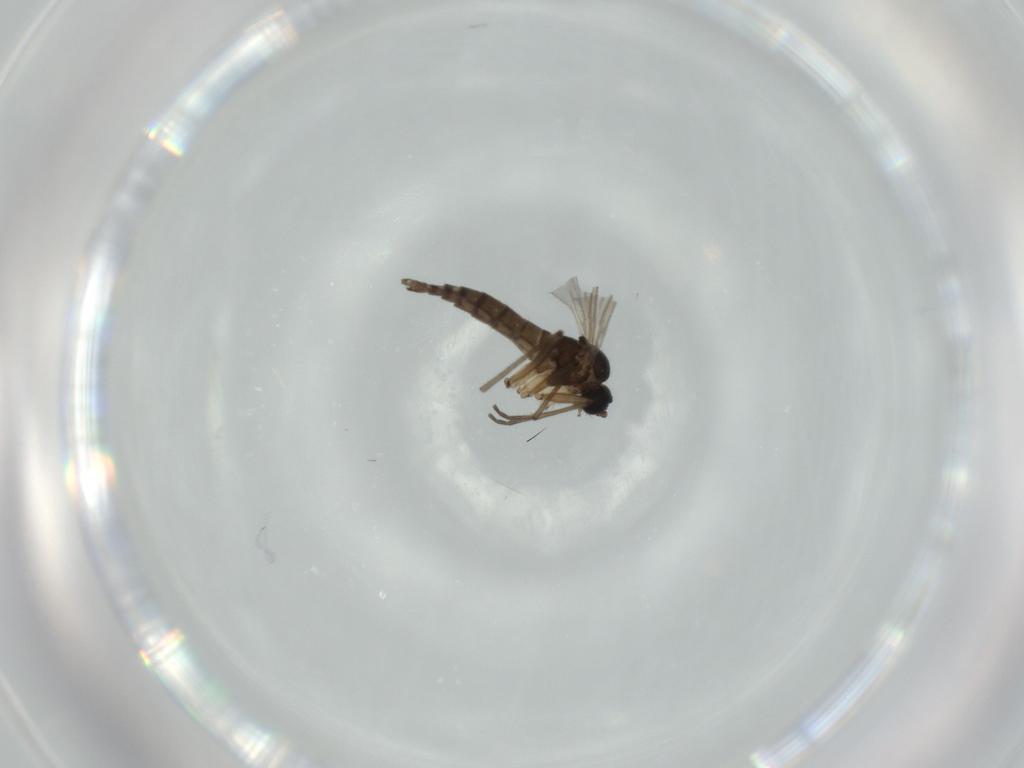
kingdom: Animalia
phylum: Arthropoda
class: Insecta
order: Diptera
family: Sciaridae
